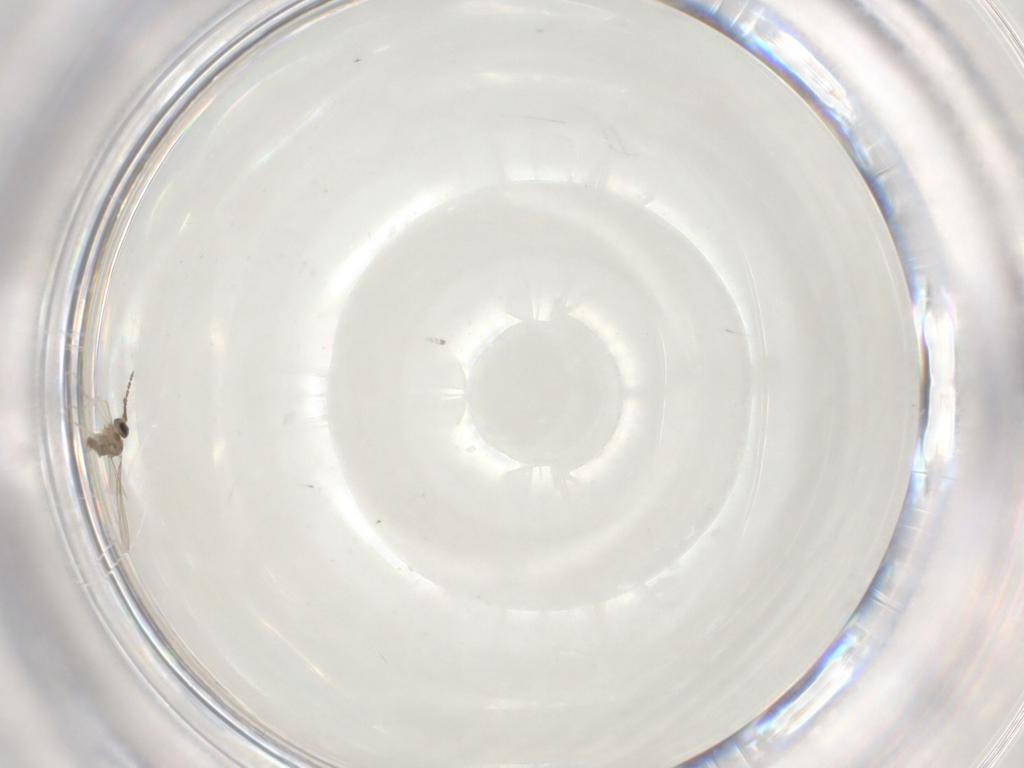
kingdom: Animalia
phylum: Arthropoda
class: Insecta
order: Diptera
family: Cecidomyiidae
